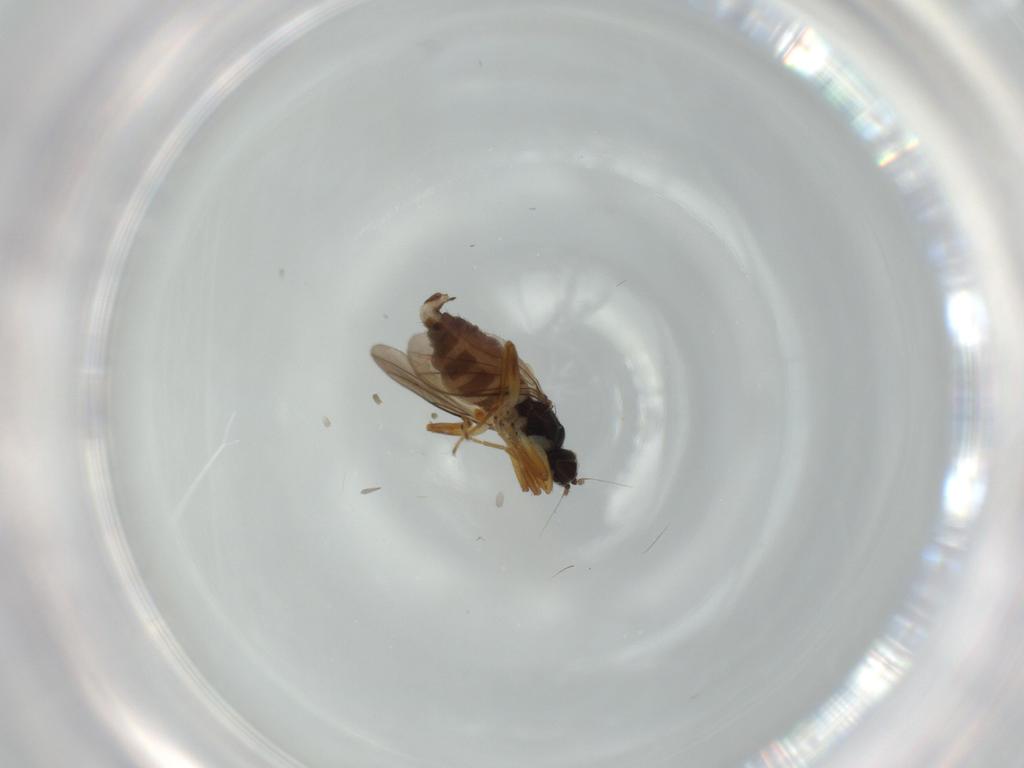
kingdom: Animalia
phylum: Arthropoda
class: Insecta
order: Diptera
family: Hybotidae
